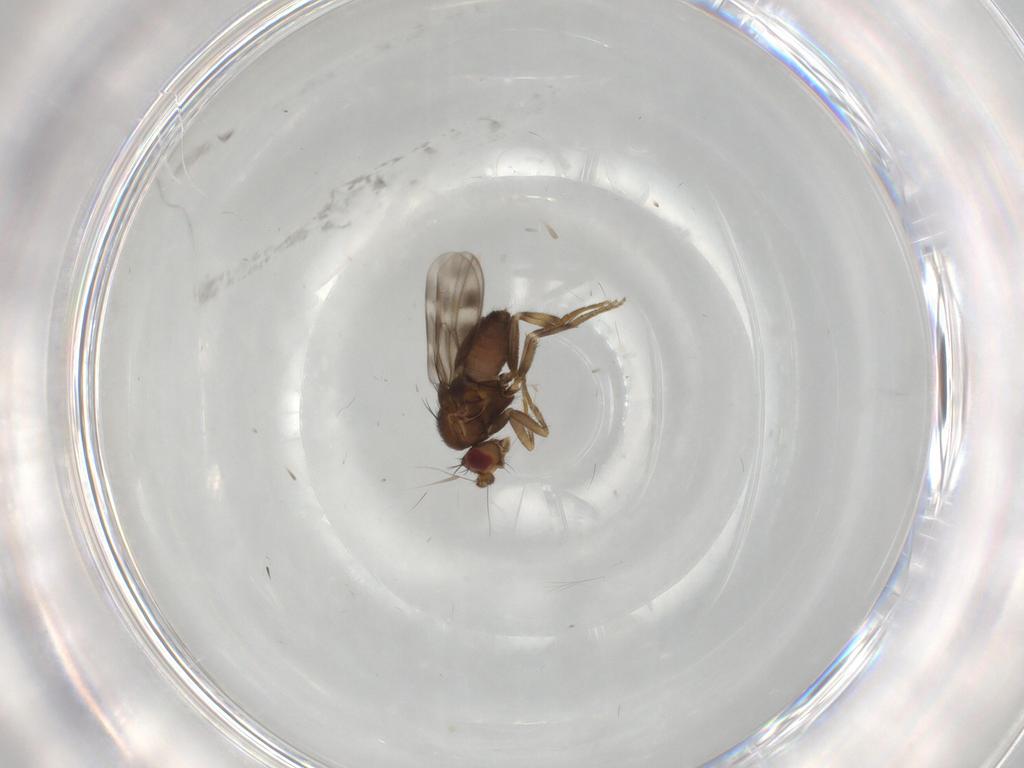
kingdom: Animalia
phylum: Arthropoda
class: Insecta
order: Diptera
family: Sphaeroceridae
